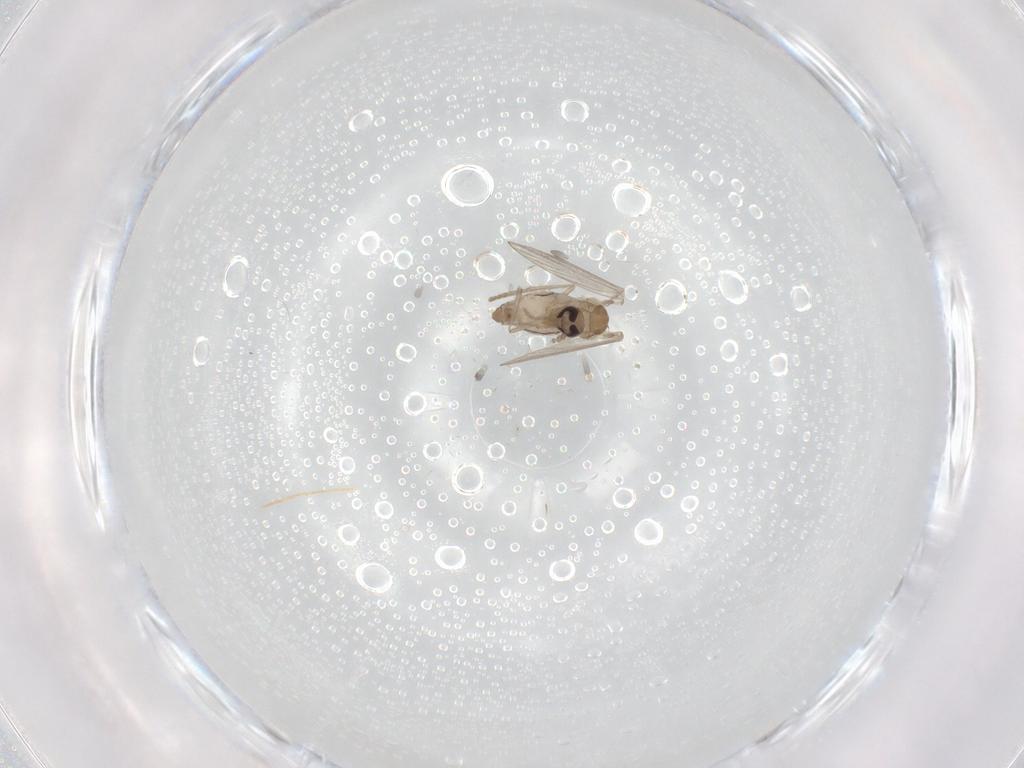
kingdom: Animalia
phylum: Arthropoda
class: Insecta
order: Diptera
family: Psychodidae
